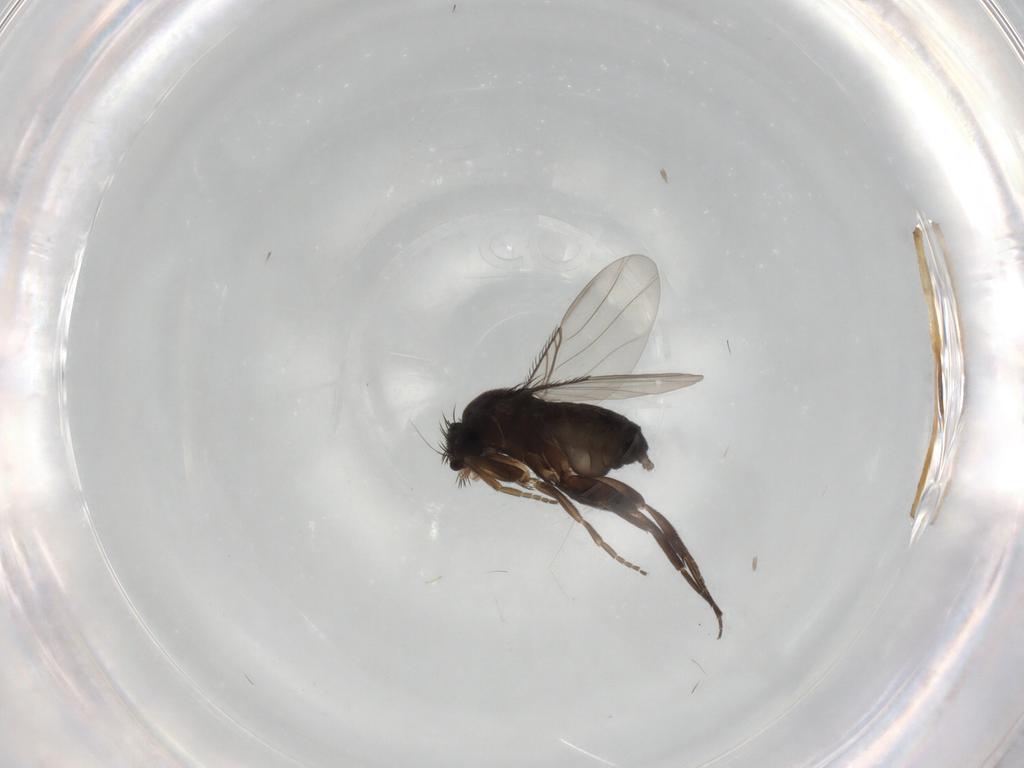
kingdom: Animalia
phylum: Arthropoda
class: Insecta
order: Diptera
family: Phoridae
